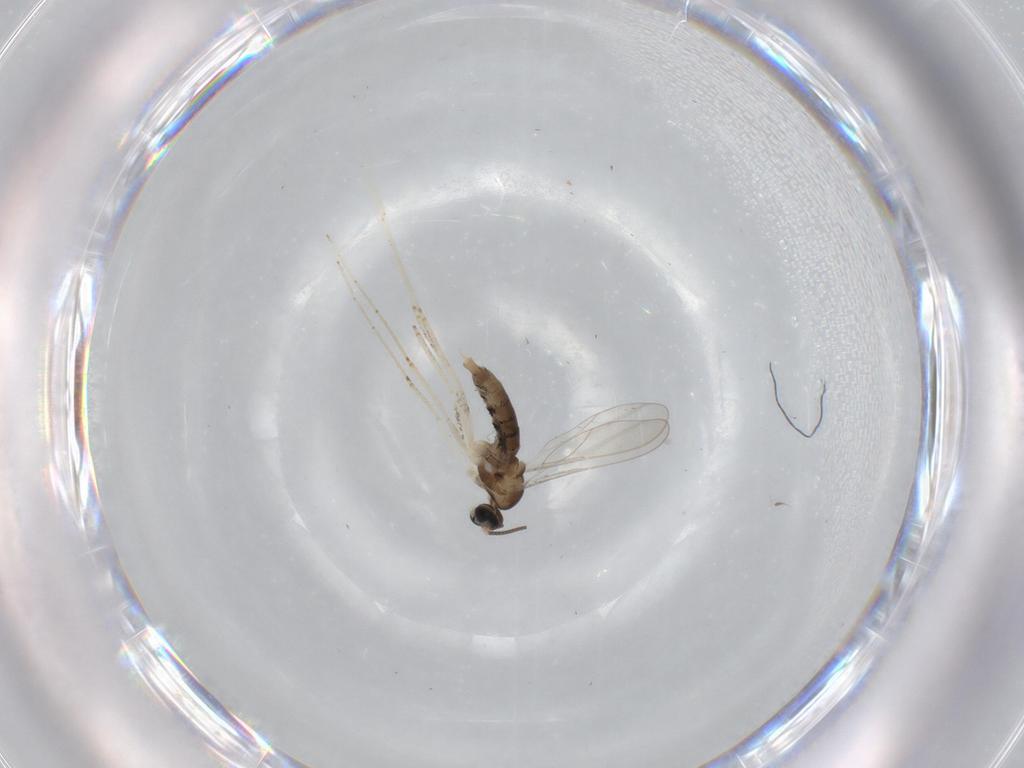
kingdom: Animalia
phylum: Arthropoda
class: Insecta
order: Diptera
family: Cecidomyiidae
